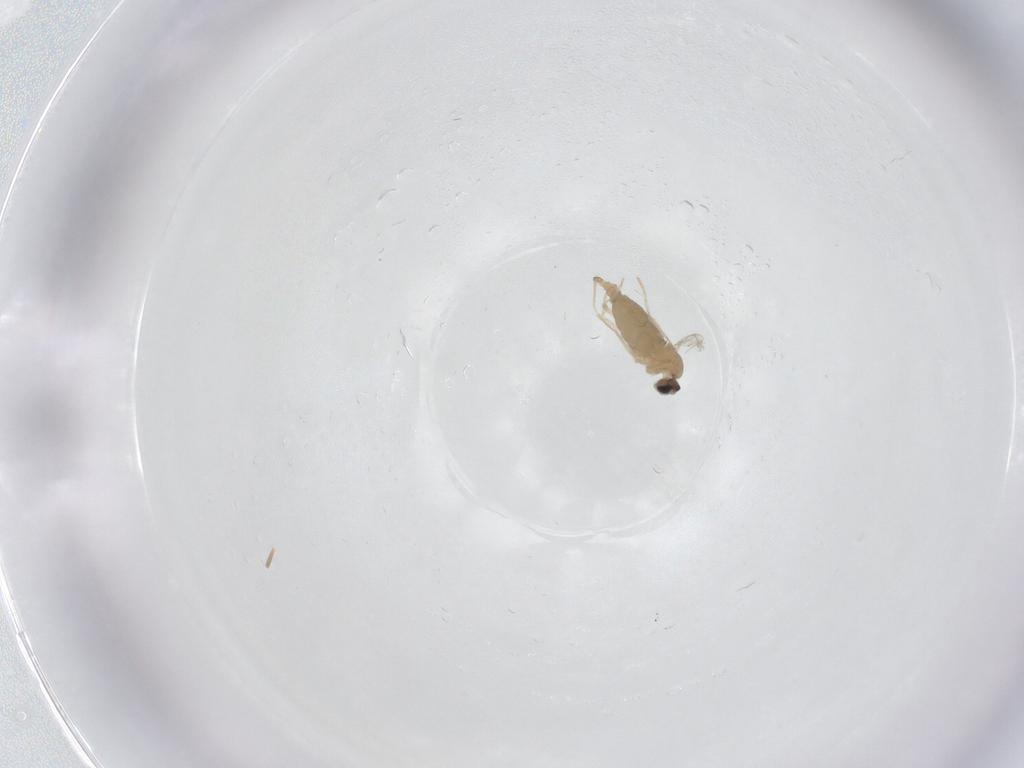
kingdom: Animalia
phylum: Arthropoda
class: Insecta
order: Diptera
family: Cecidomyiidae
